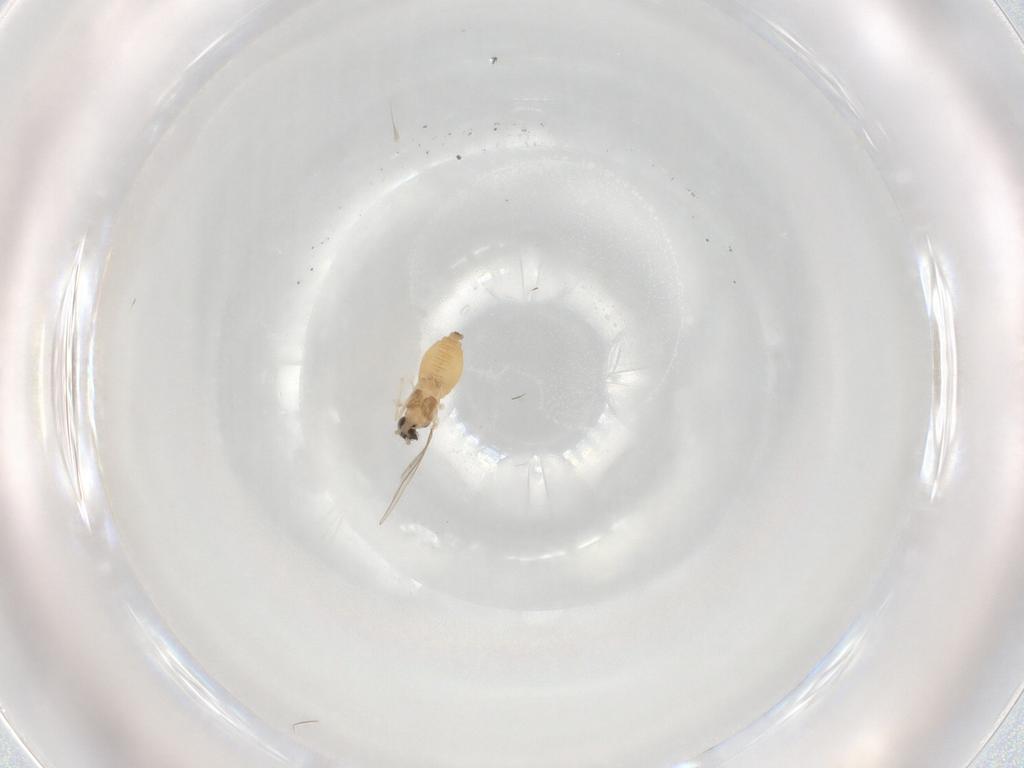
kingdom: Animalia
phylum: Arthropoda
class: Insecta
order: Diptera
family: Cecidomyiidae
